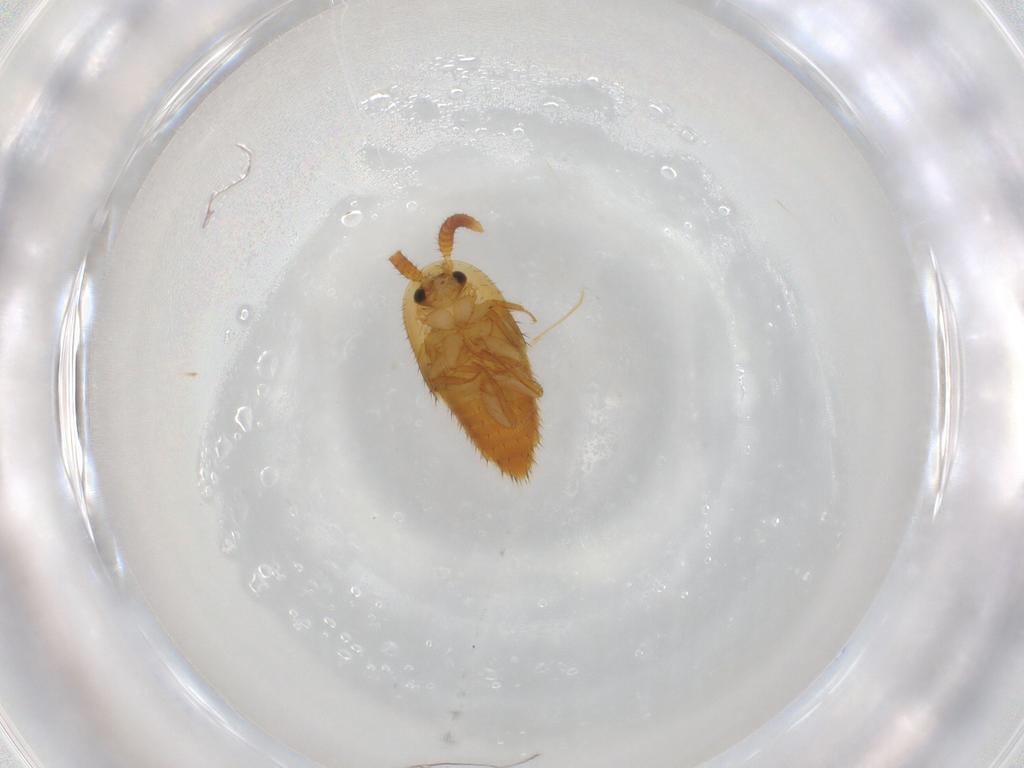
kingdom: Animalia
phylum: Arthropoda
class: Insecta
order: Coleoptera
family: Staphylinidae
